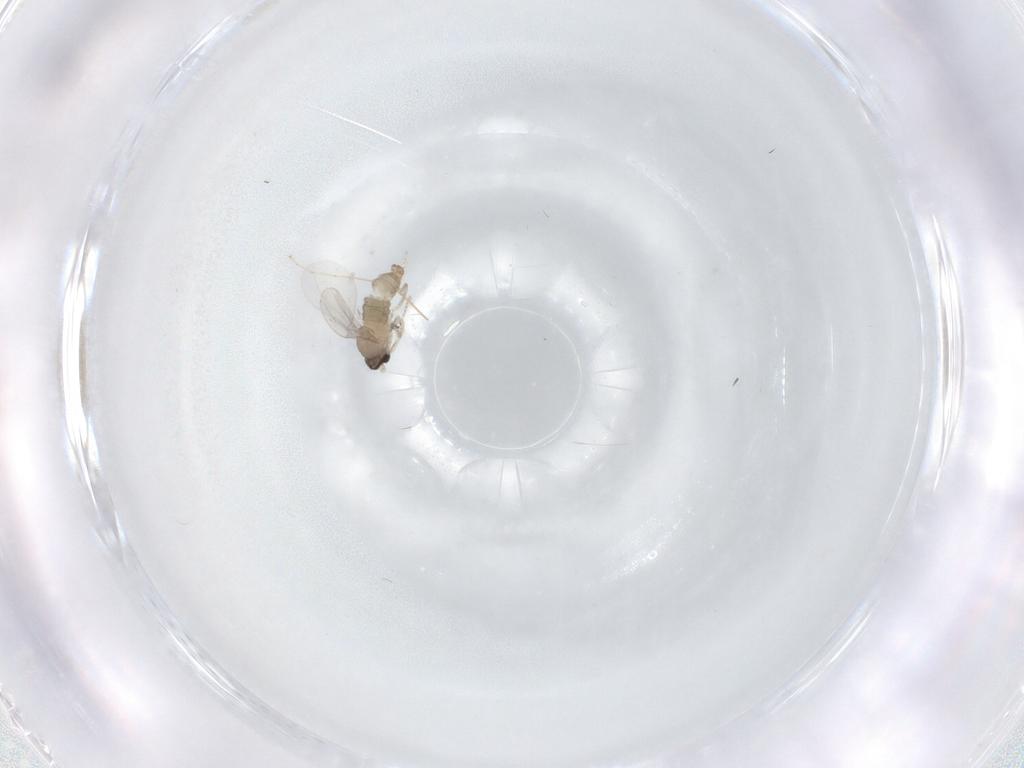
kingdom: Animalia
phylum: Arthropoda
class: Insecta
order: Diptera
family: Cecidomyiidae
